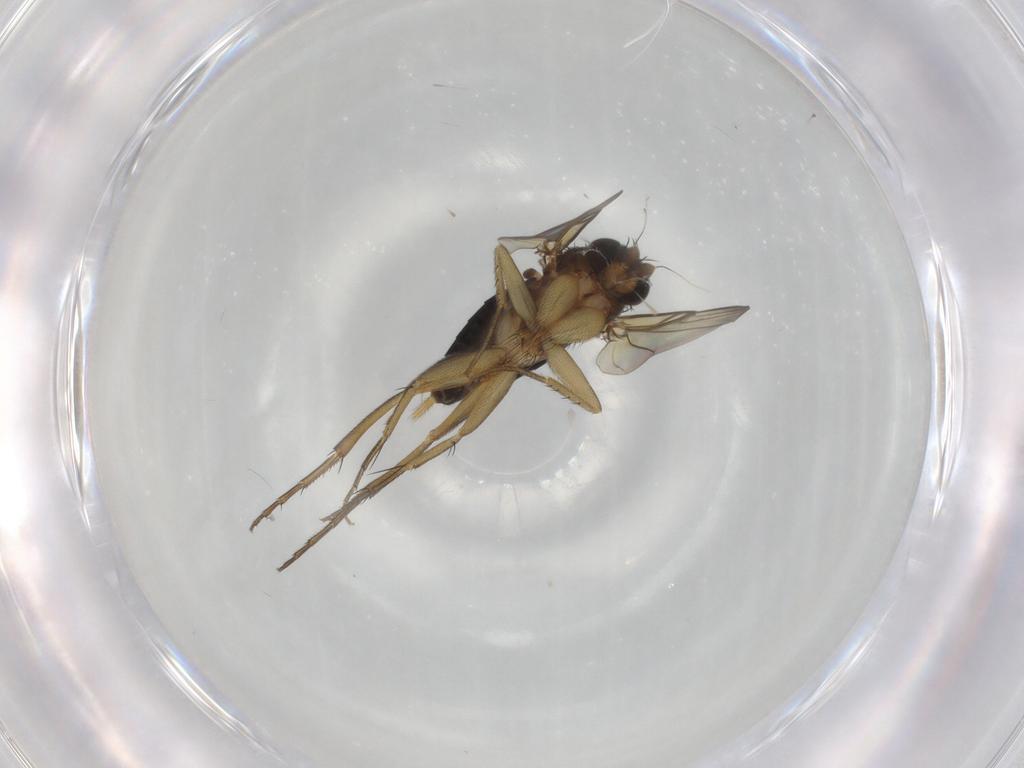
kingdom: Animalia
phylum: Arthropoda
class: Insecta
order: Diptera
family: Phoridae
